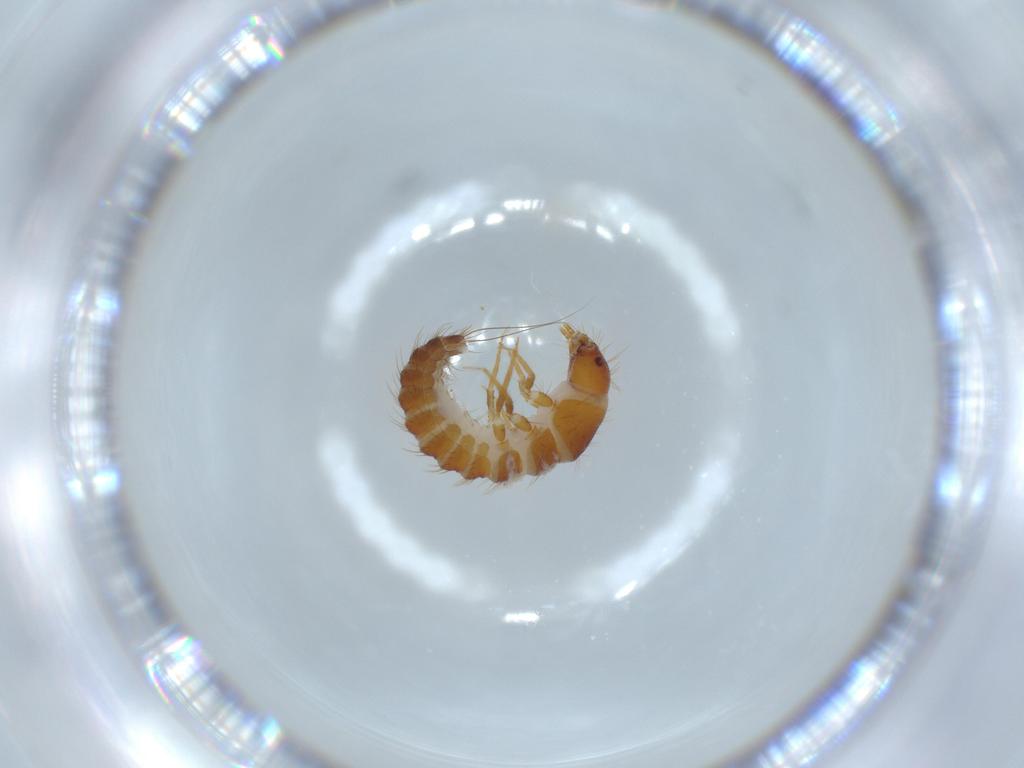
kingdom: Animalia
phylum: Arthropoda
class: Insecta
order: Coleoptera
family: Meloidae
